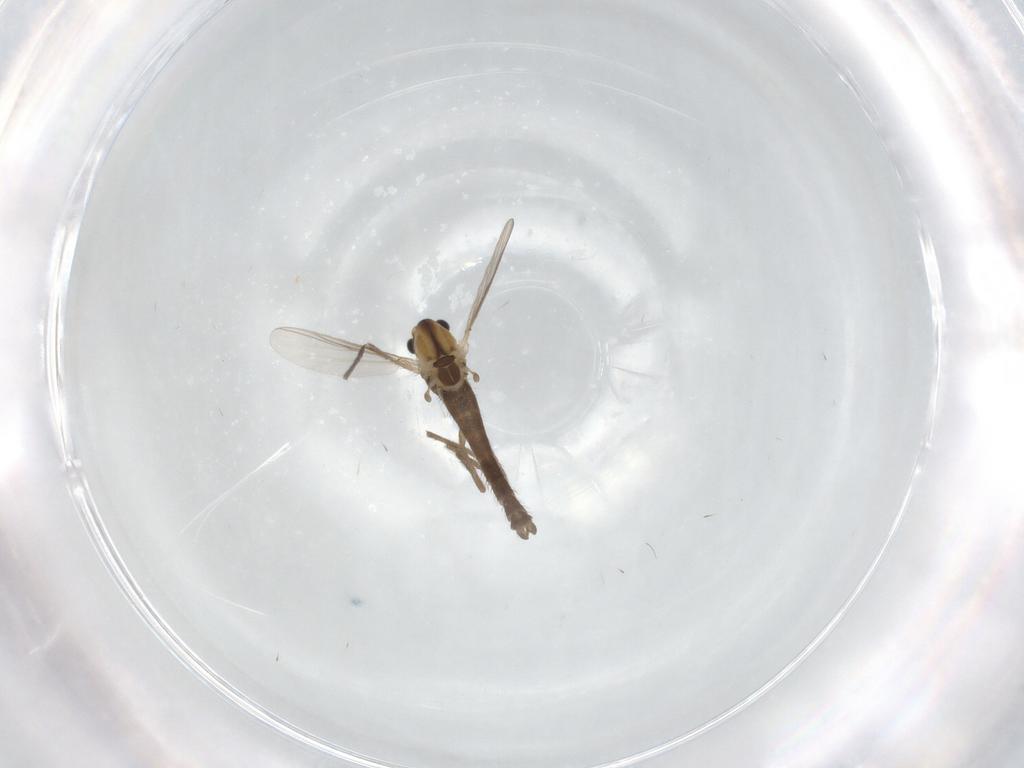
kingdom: Animalia
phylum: Arthropoda
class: Insecta
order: Diptera
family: Chironomidae
